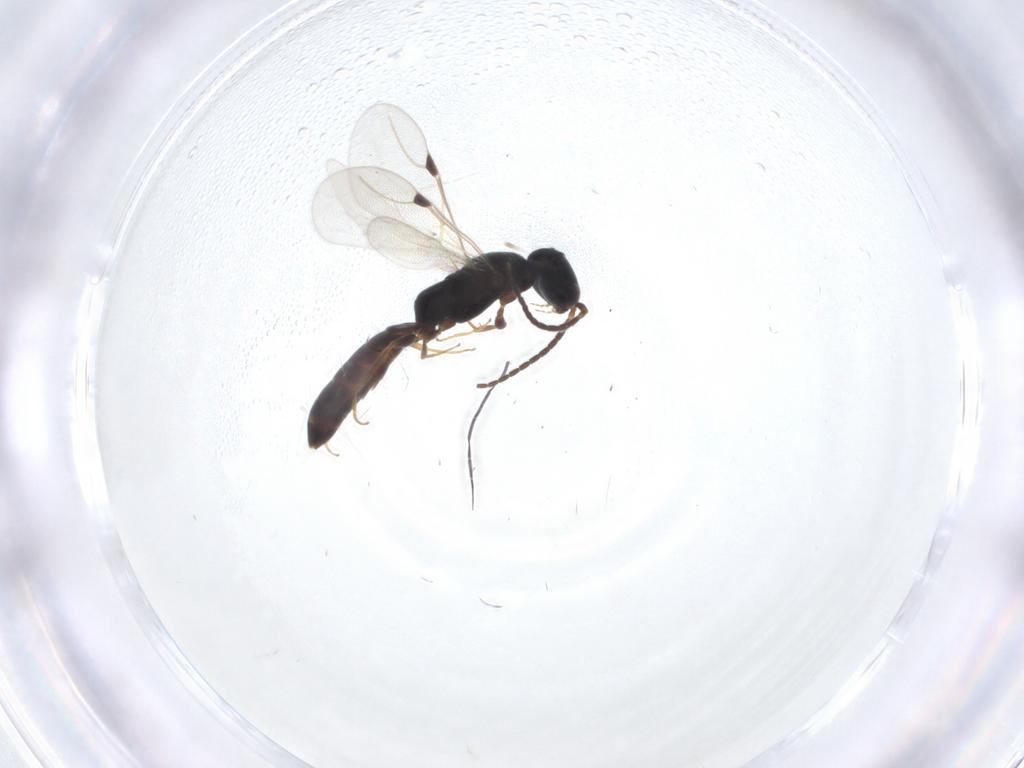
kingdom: Animalia
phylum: Arthropoda
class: Insecta
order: Hymenoptera
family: Bethylidae
